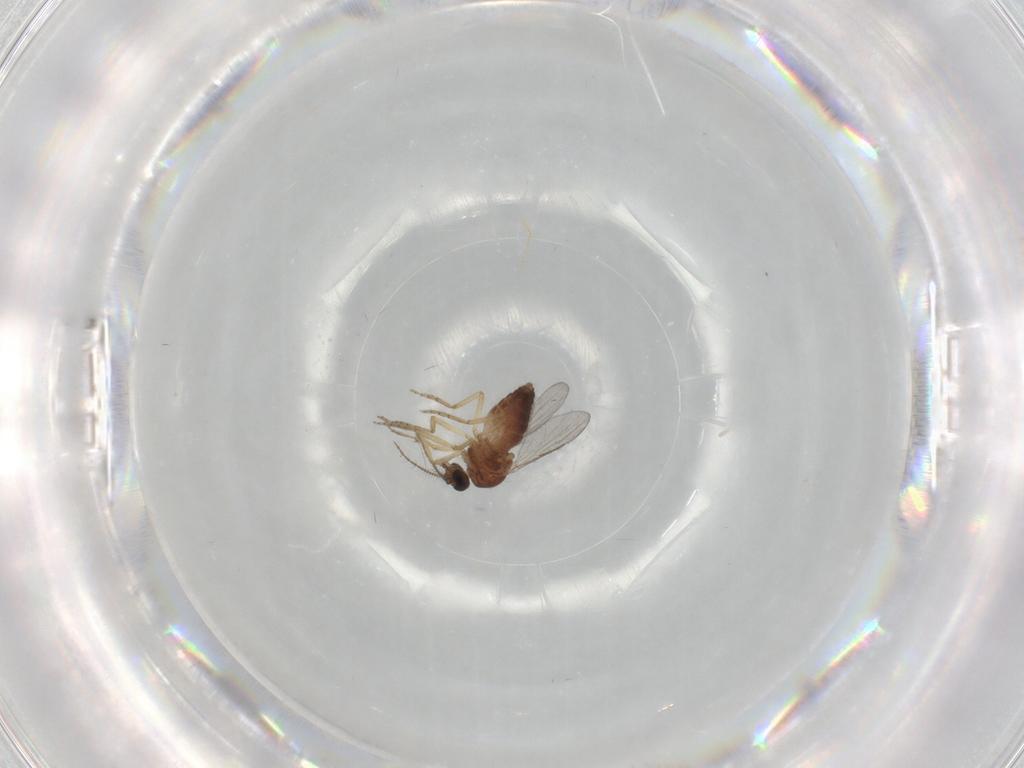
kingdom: Animalia
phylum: Arthropoda
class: Insecta
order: Diptera
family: Ceratopogonidae
